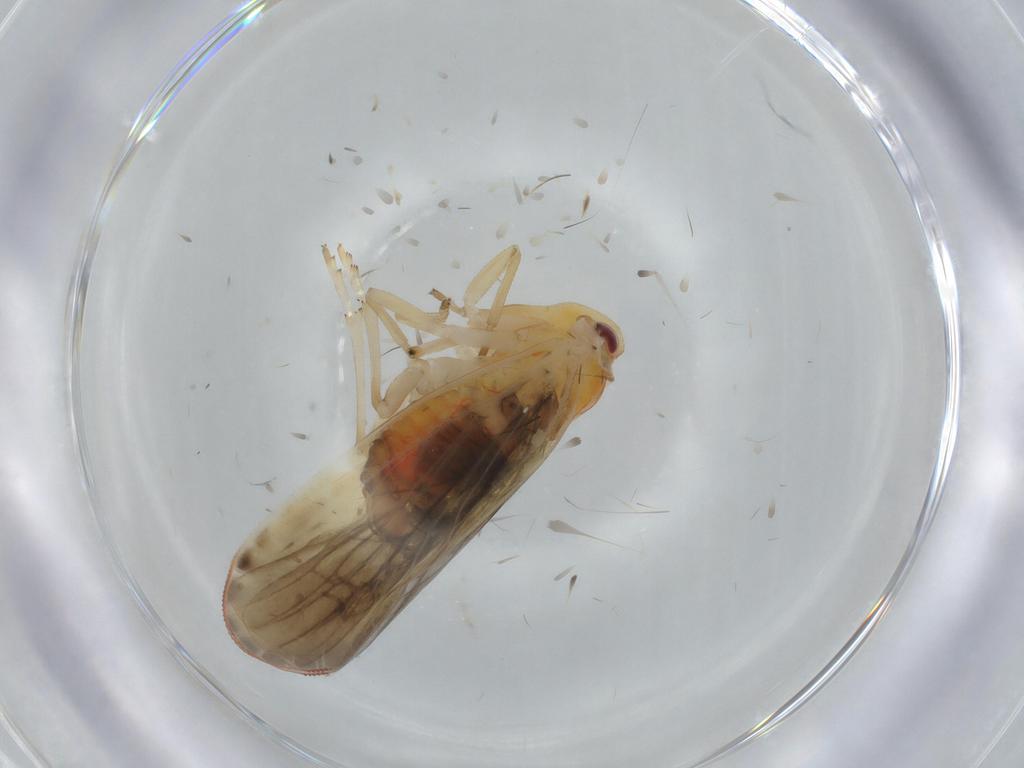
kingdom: Animalia
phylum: Arthropoda
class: Insecta
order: Hemiptera
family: Derbidae
